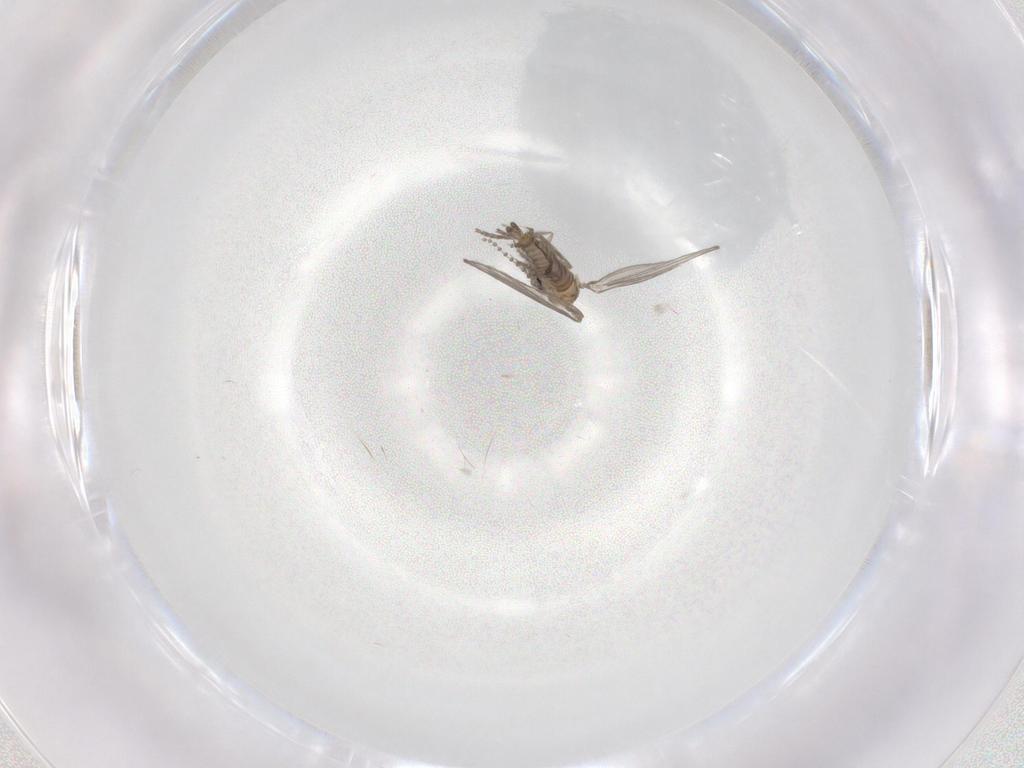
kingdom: Animalia
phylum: Arthropoda
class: Insecta
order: Diptera
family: Psychodidae
